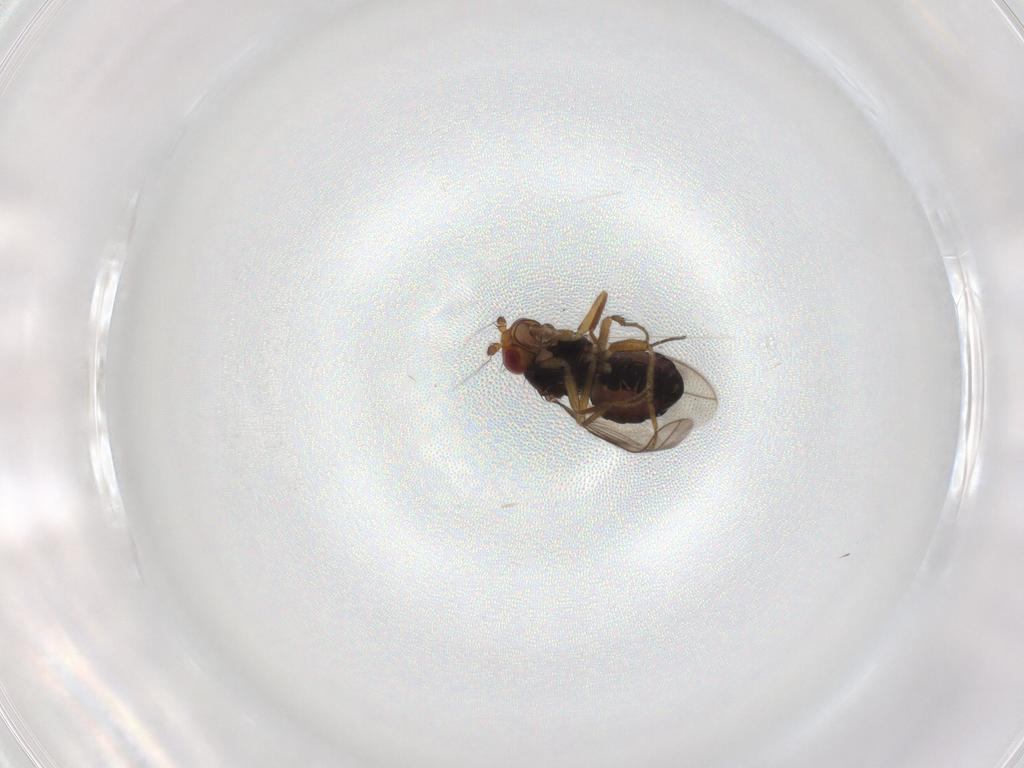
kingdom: Animalia
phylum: Arthropoda
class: Insecta
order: Diptera
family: Sphaeroceridae
